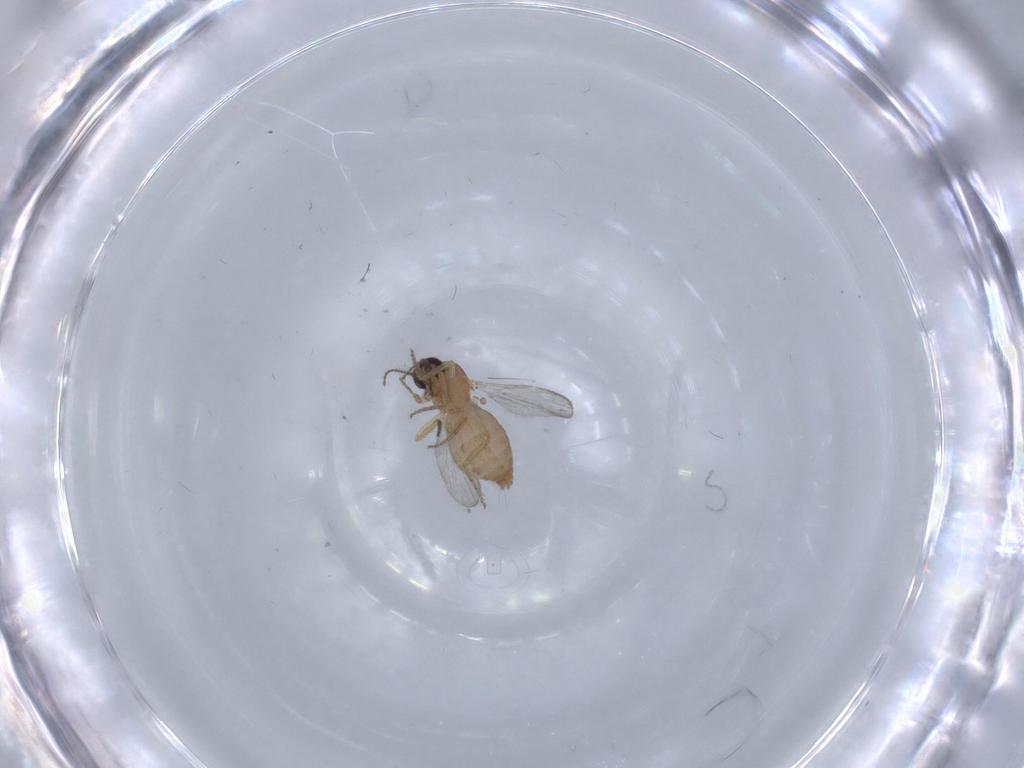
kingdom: Animalia
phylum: Arthropoda
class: Insecta
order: Diptera
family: Ceratopogonidae
